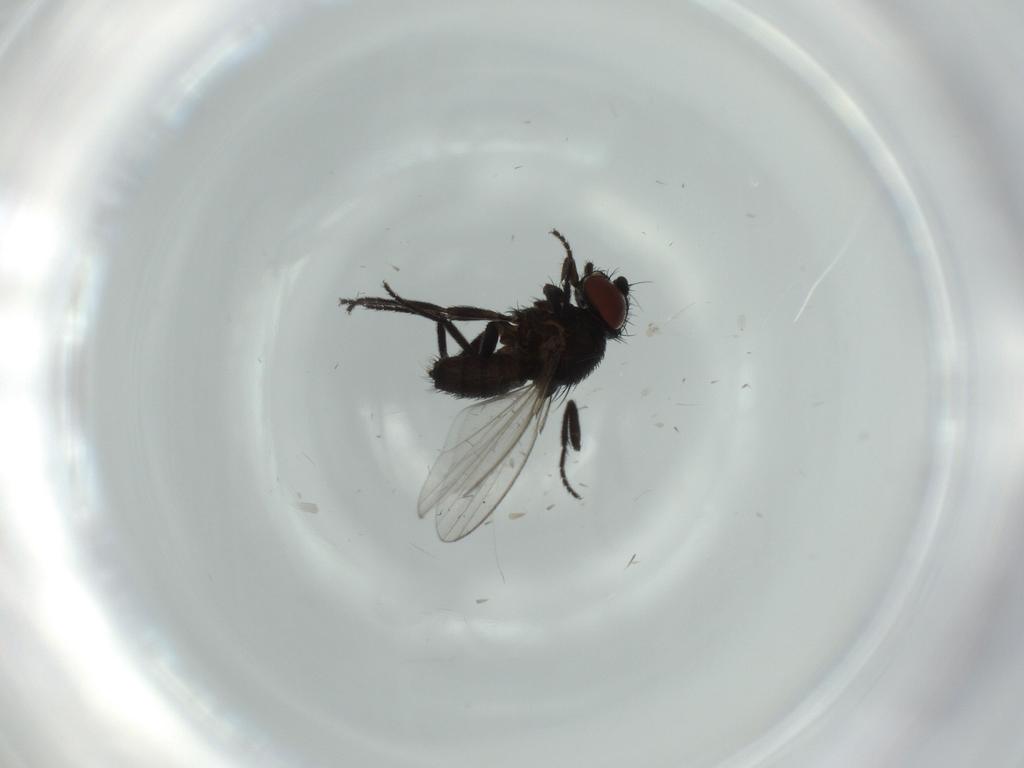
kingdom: Animalia
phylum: Arthropoda
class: Insecta
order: Diptera
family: Milichiidae
